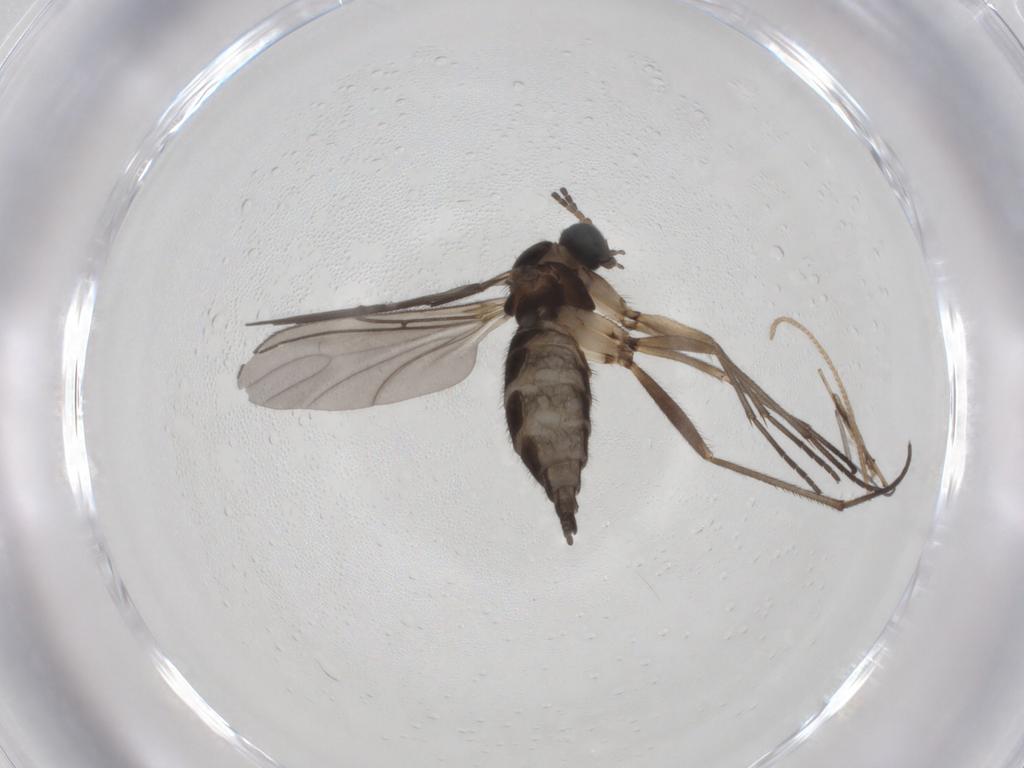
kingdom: Animalia
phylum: Arthropoda
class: Insecta
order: Diptera
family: Sciaridae
